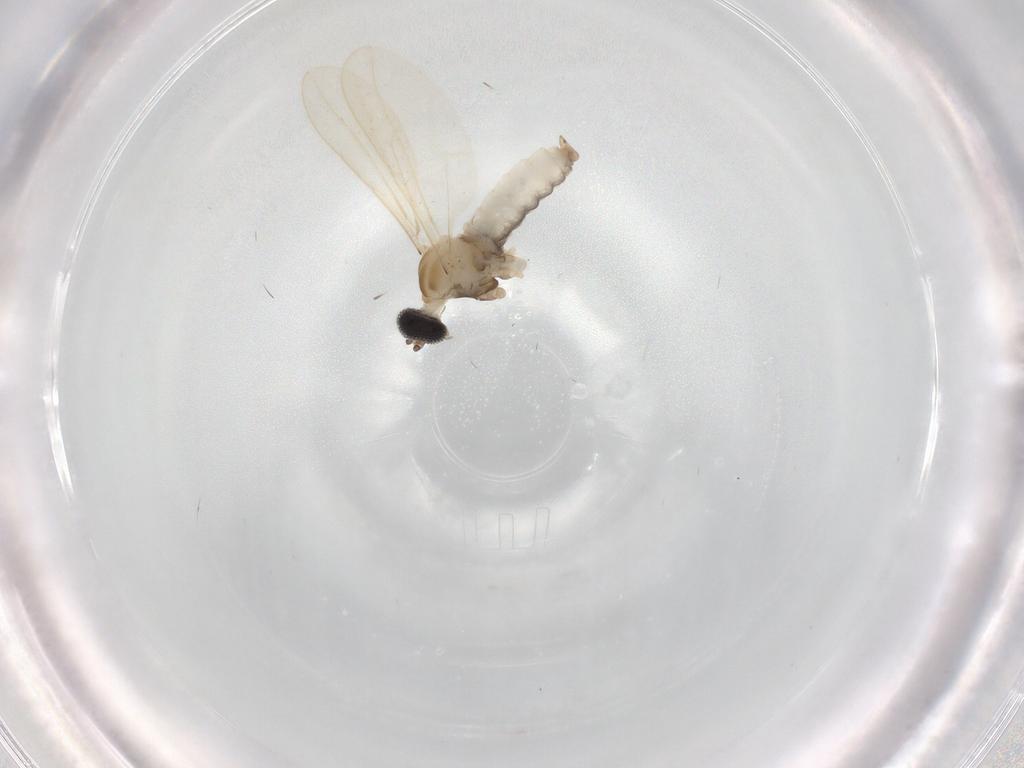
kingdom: Animalia
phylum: Arthropoda
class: Insecta
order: Diptera
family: Cecidomyiidae
